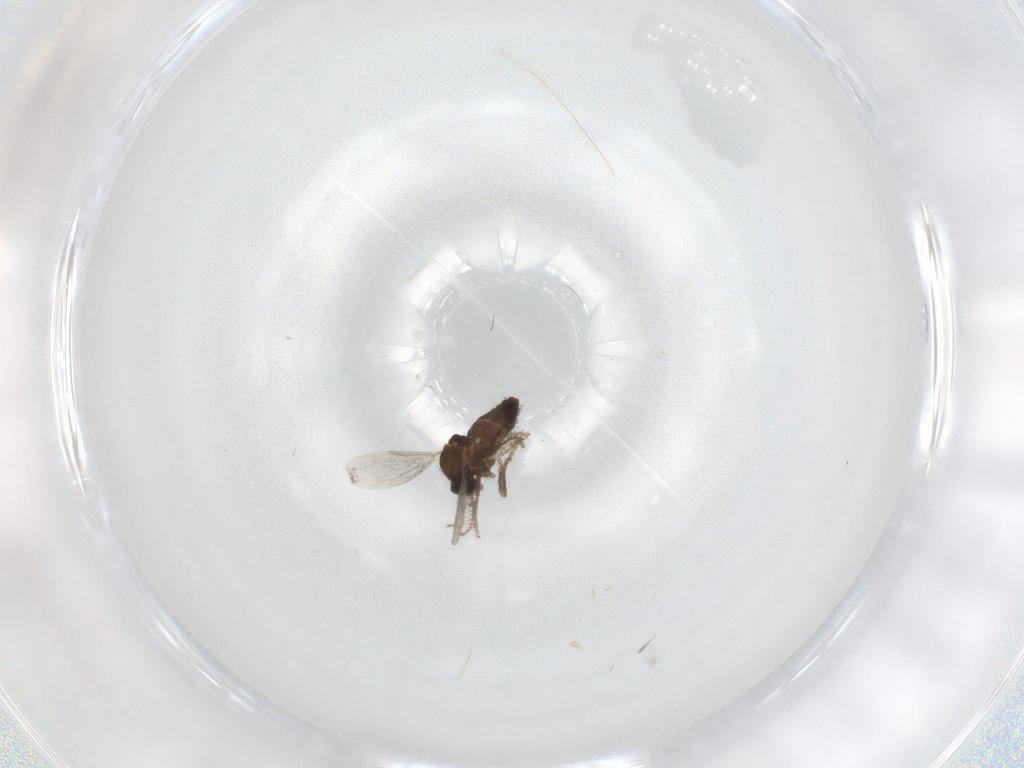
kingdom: Animalia
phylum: Arthropoda
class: Insecta
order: Diptera
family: Ceratopogonidae
